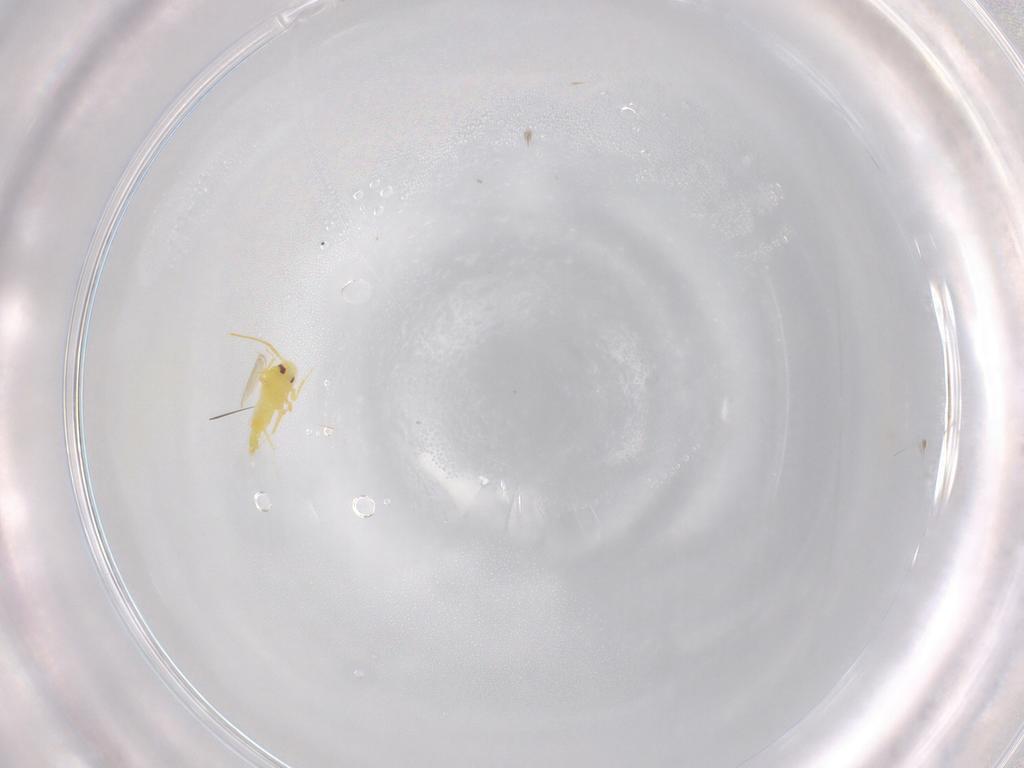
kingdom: Animalia
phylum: Arthropoda
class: Insecta
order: Hemiptera
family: Aleyrodidae
